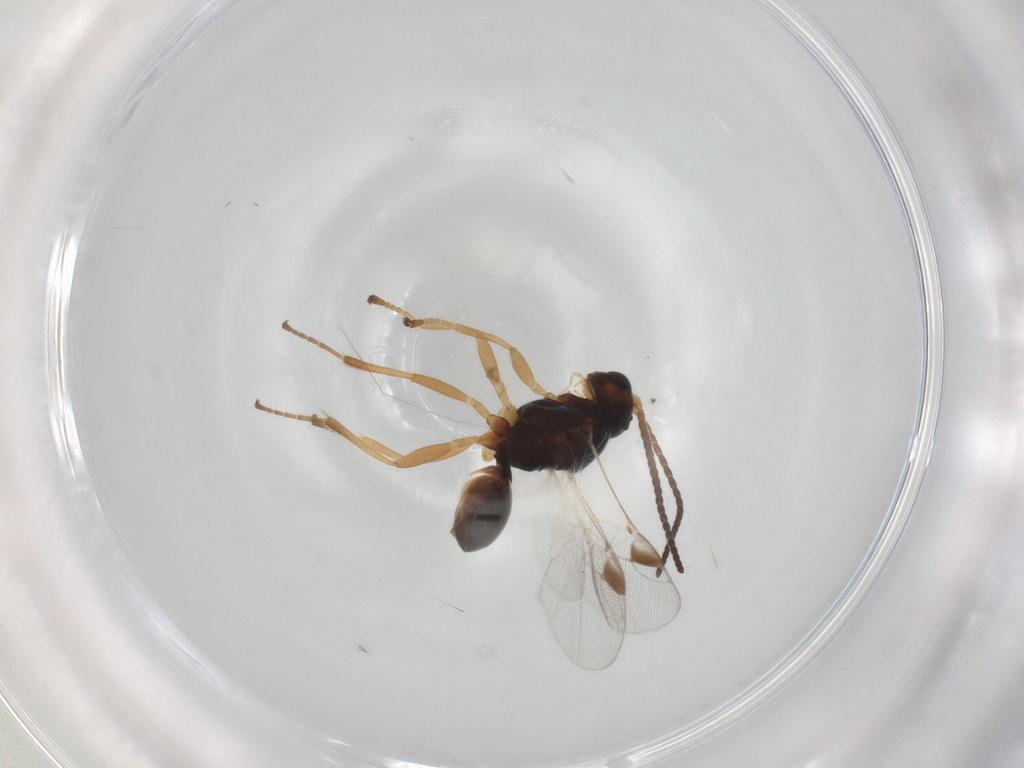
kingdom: Animalia
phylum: Arthropoda
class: Insecta
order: Hymenoptera
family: Braconidae
